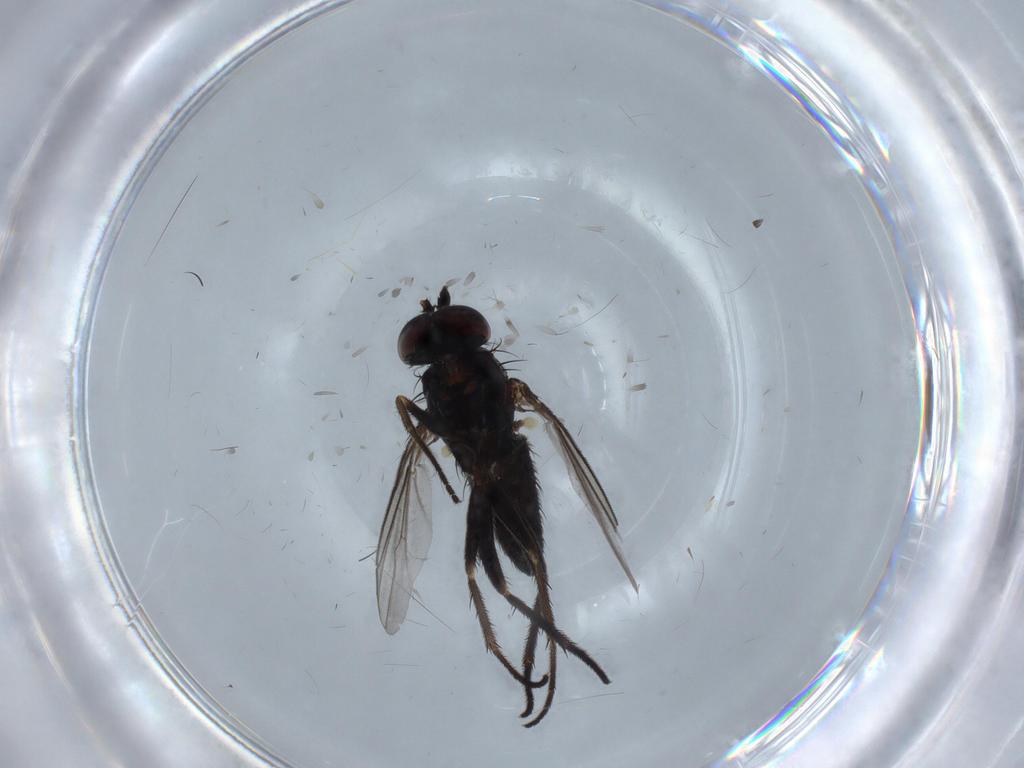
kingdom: Animalia
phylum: Arthropoda
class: Insecta
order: Diptera
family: Dolichopodidae
